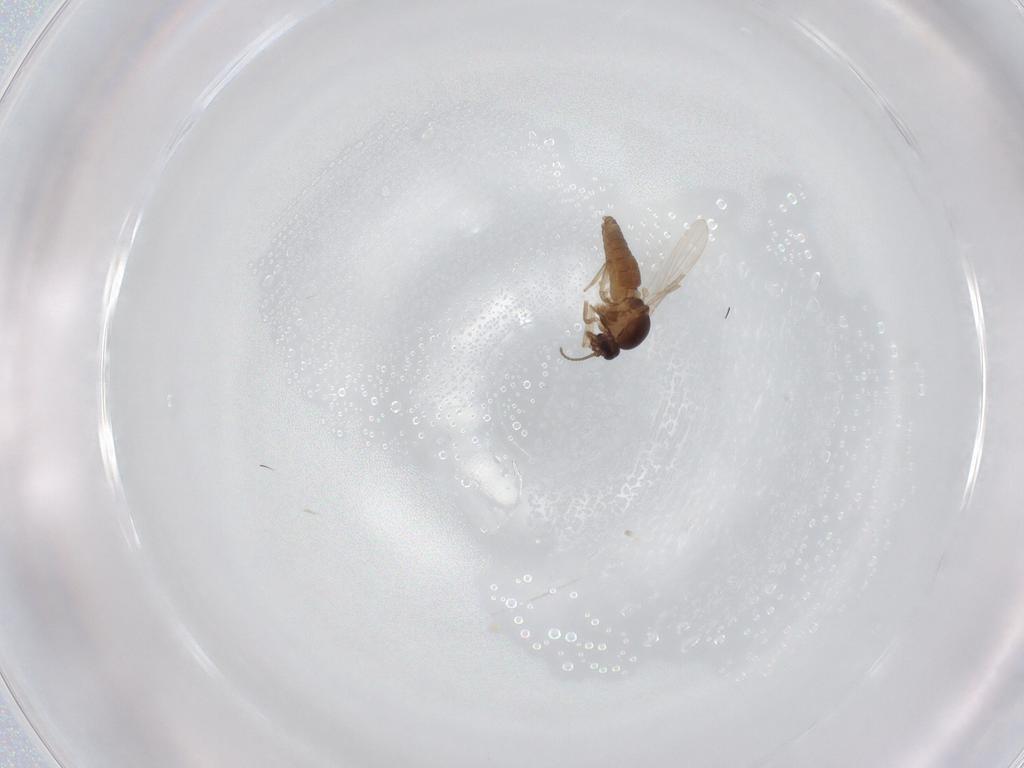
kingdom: Animalia
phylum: Arthropoda
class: Insecta
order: Diptera
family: Ceratopogonidae
